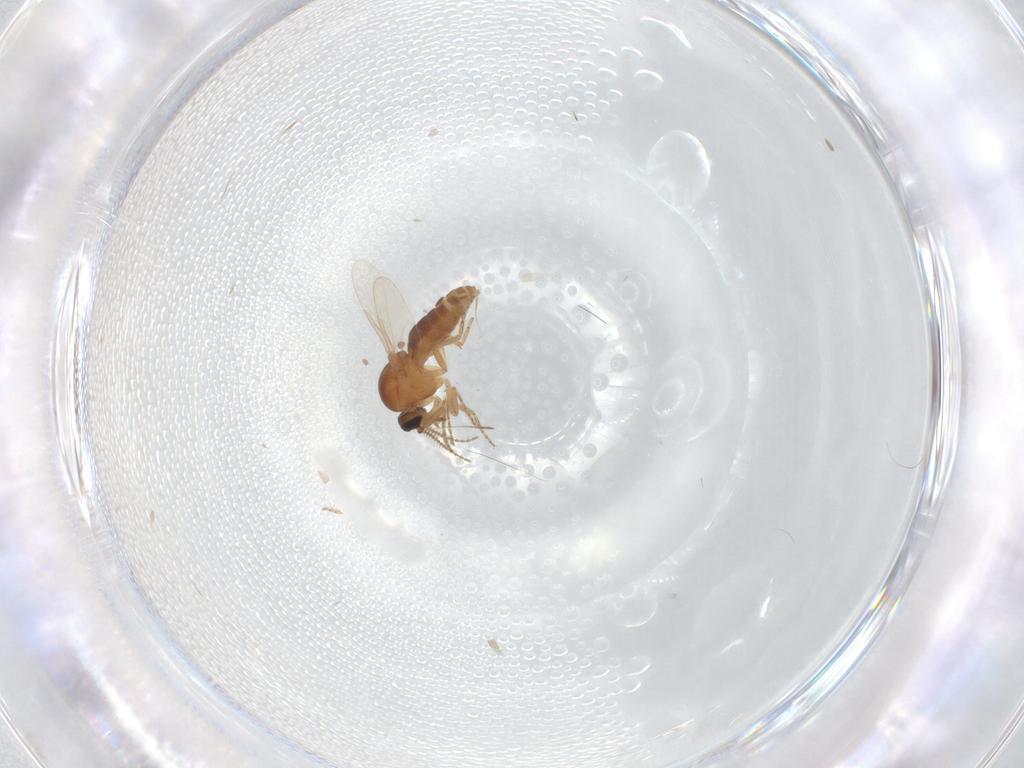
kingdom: Animalia
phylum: Arthropoda
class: Insecta
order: Diptera
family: Ceratopogonidae
